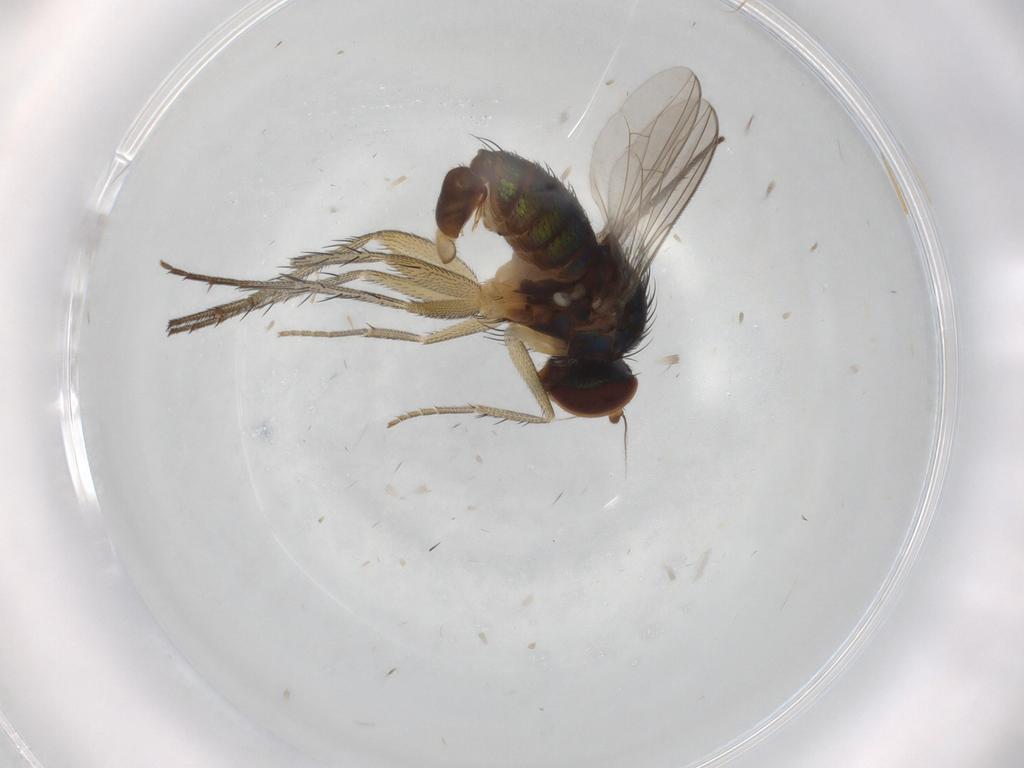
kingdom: Animalia
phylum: Arthropoda
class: Insecta
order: Diptera
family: Dolichopodidae
